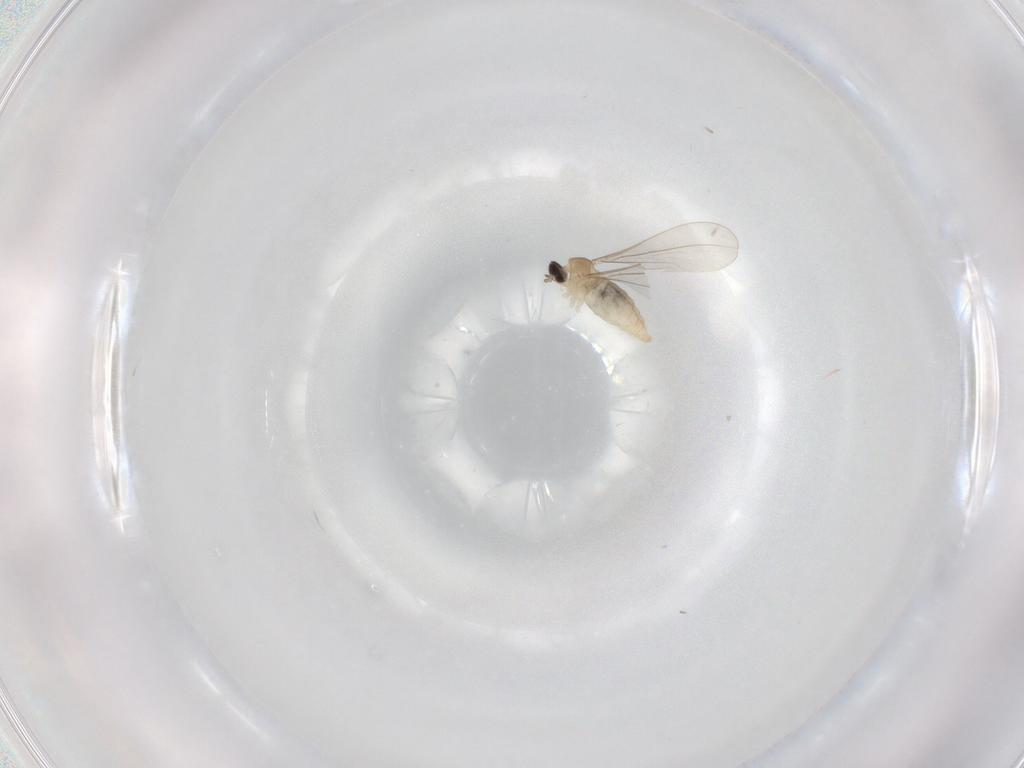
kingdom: Animalia
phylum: Arthropoda
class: Insecta
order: Diptera
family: Cecidomyiidae
